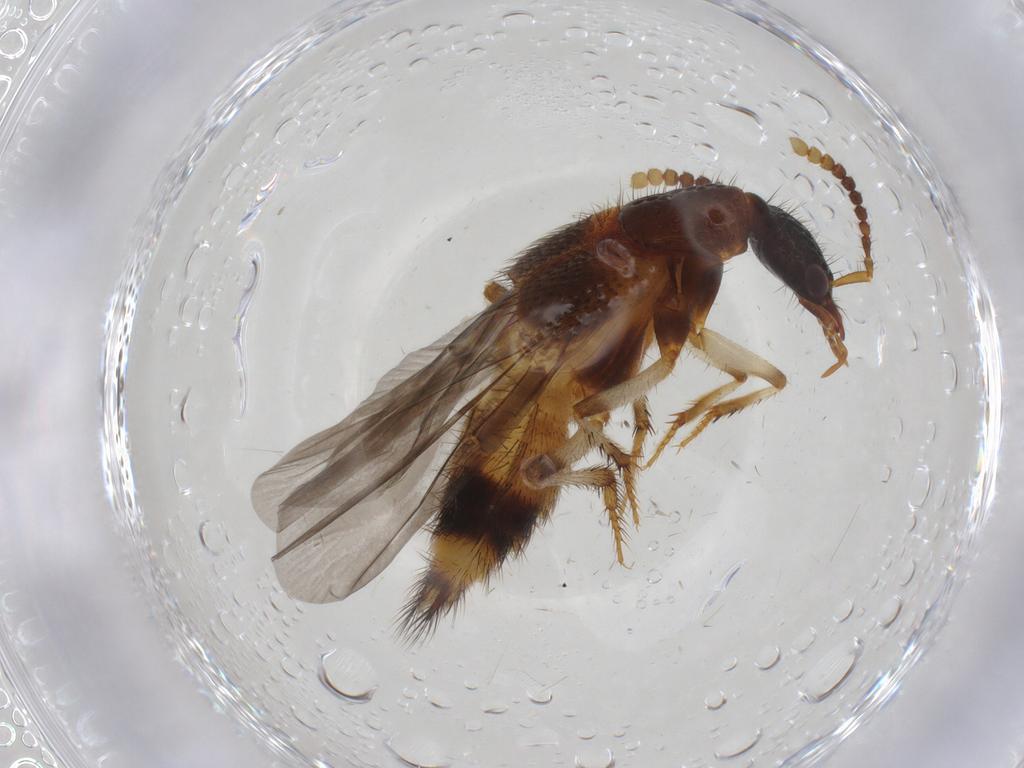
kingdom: Animalia
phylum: Arthropoda
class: Insecta
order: Coleoptera
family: Staphylinidae
